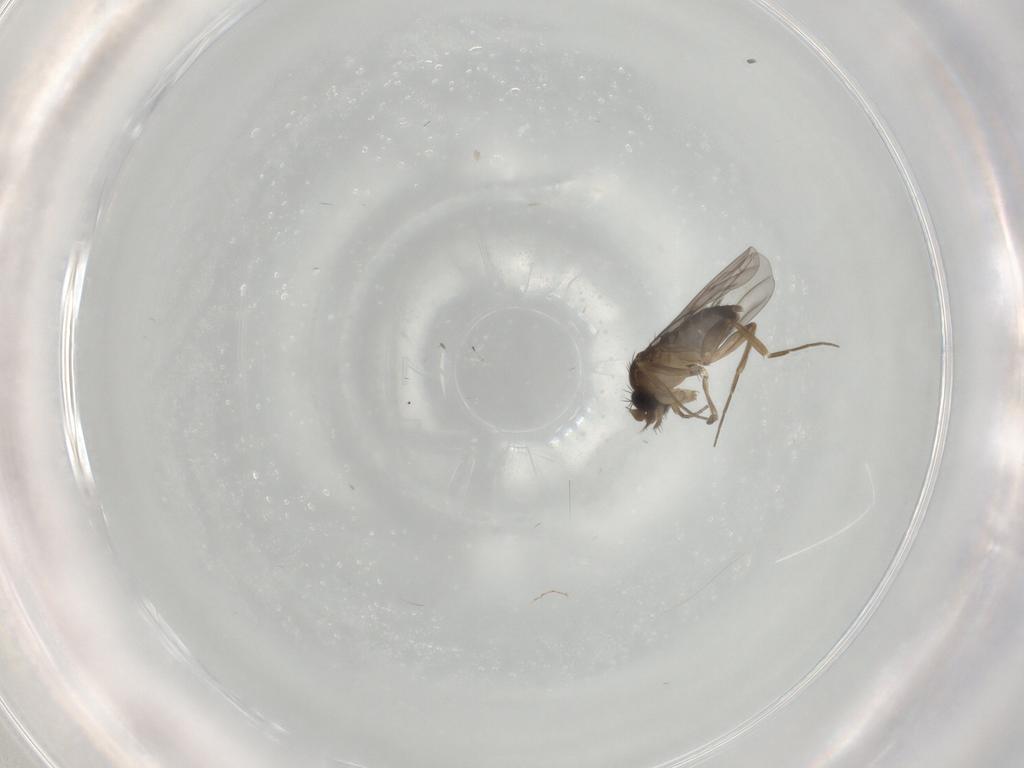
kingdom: Animalia
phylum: Arthropoda
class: Insecta
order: Diptera
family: Phoridae
